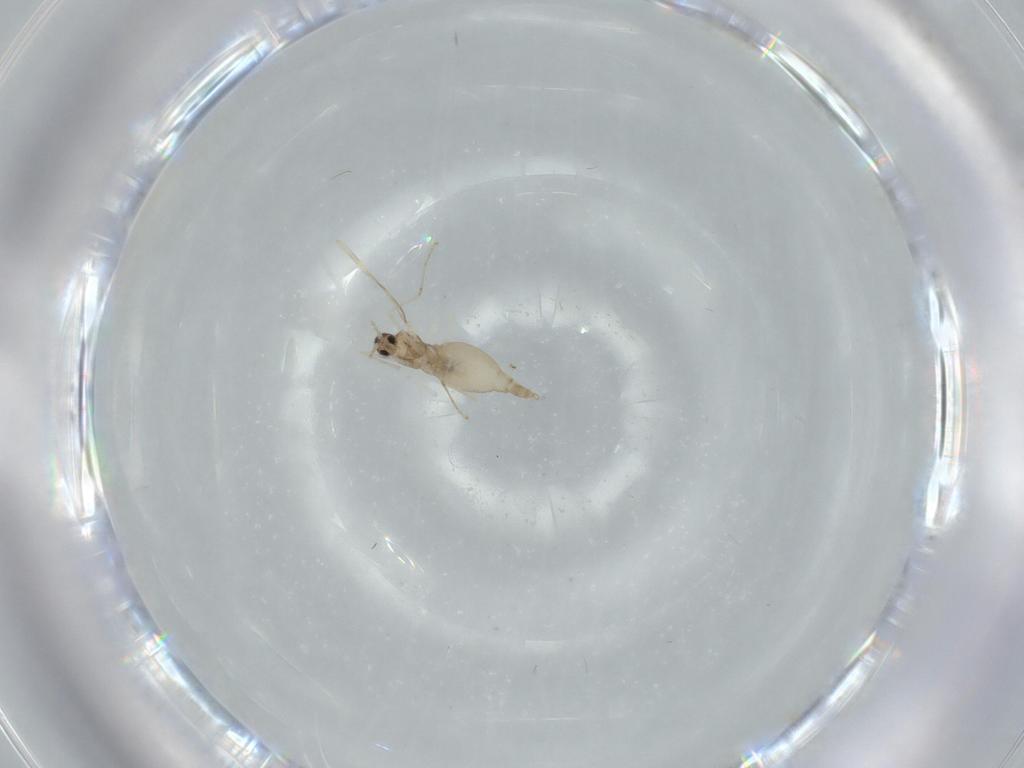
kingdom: Animalia
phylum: Arthropoda
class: Insecta
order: Diptera
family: Cecidomyiidae
